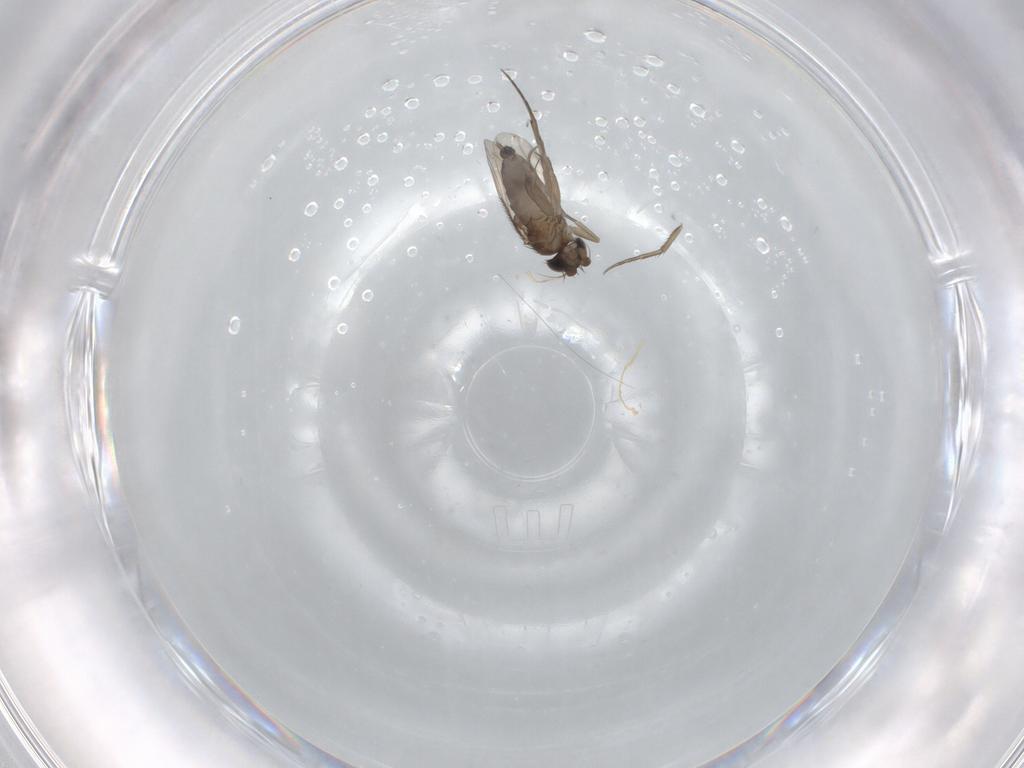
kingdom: Animalia
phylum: Arthropoda
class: Insecta
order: Diptera
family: Phoridae
